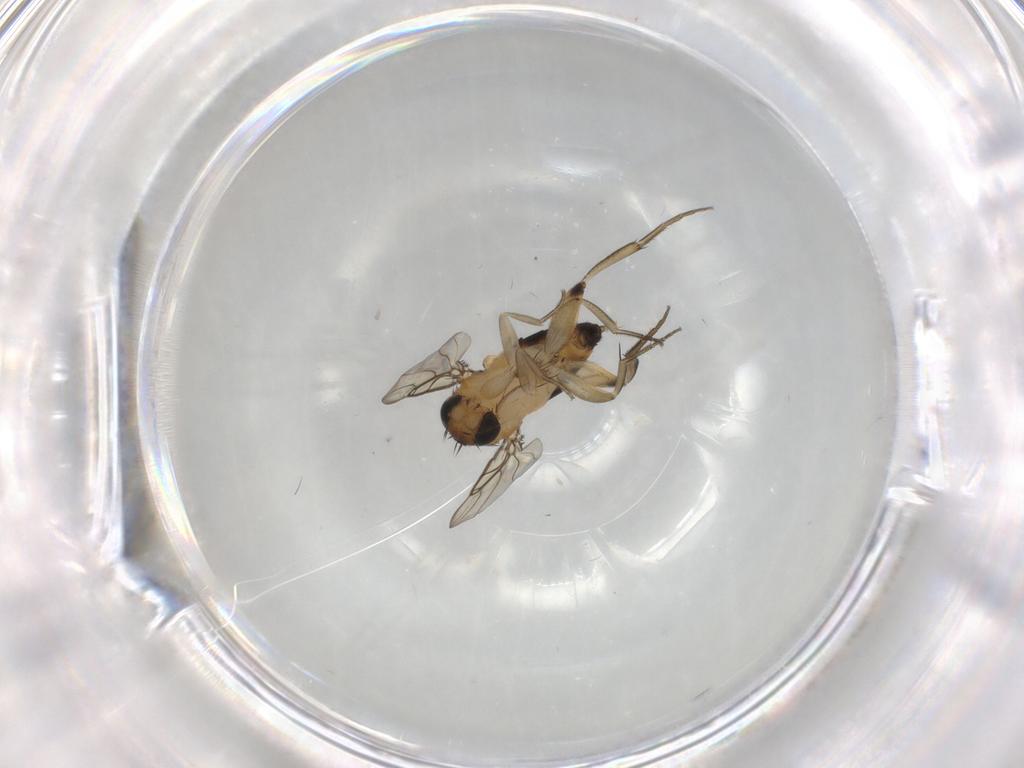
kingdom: Animalia
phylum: Arthropoda
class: Insecta
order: Diptera
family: Phoridae
